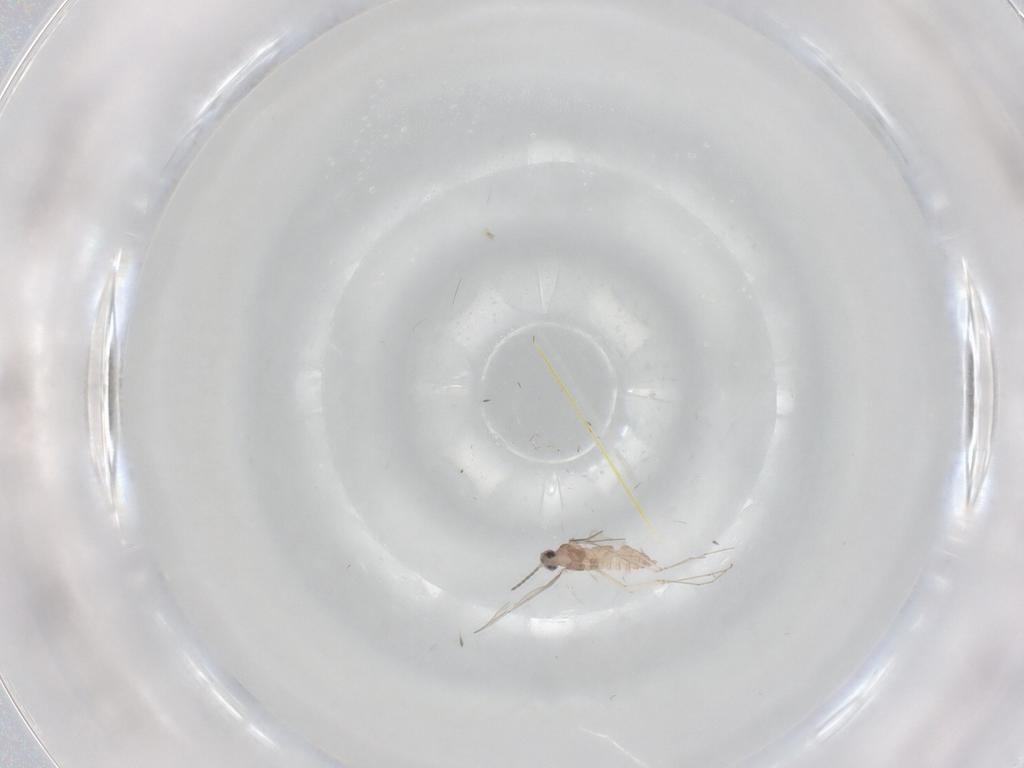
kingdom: Animalia
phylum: Arthropoda
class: Insecta
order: Diptera
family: Cecidomyiidae
